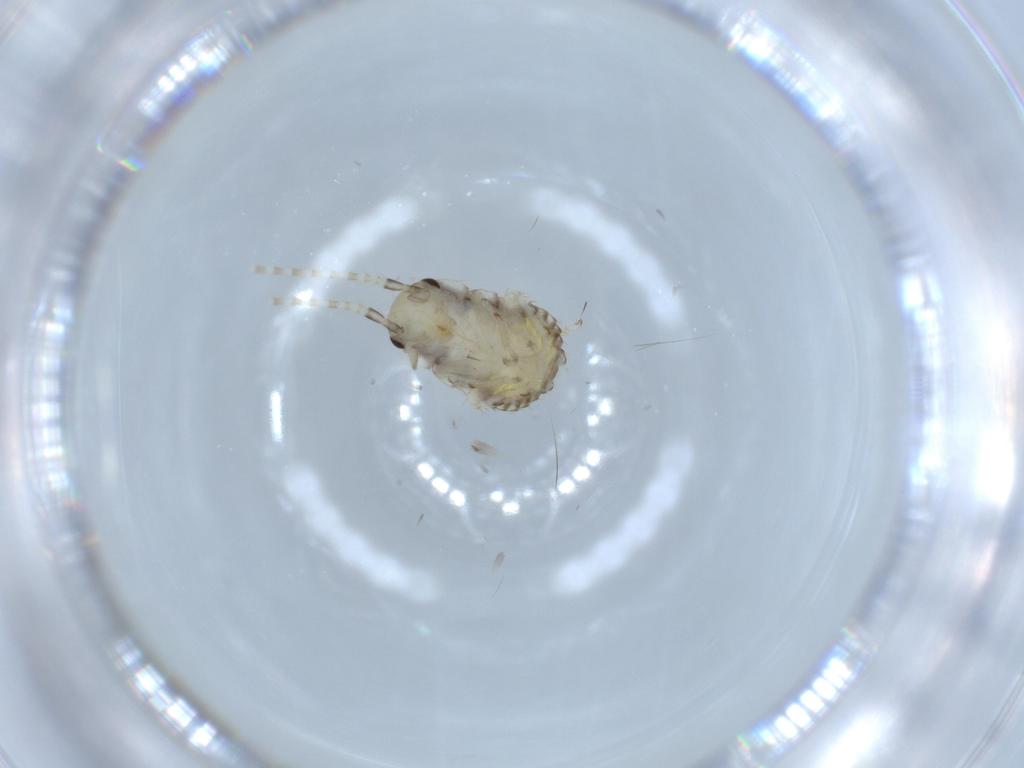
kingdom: Animalia
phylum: Arthropoda
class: Insecta
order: Blattodea
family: Ectobiidae
